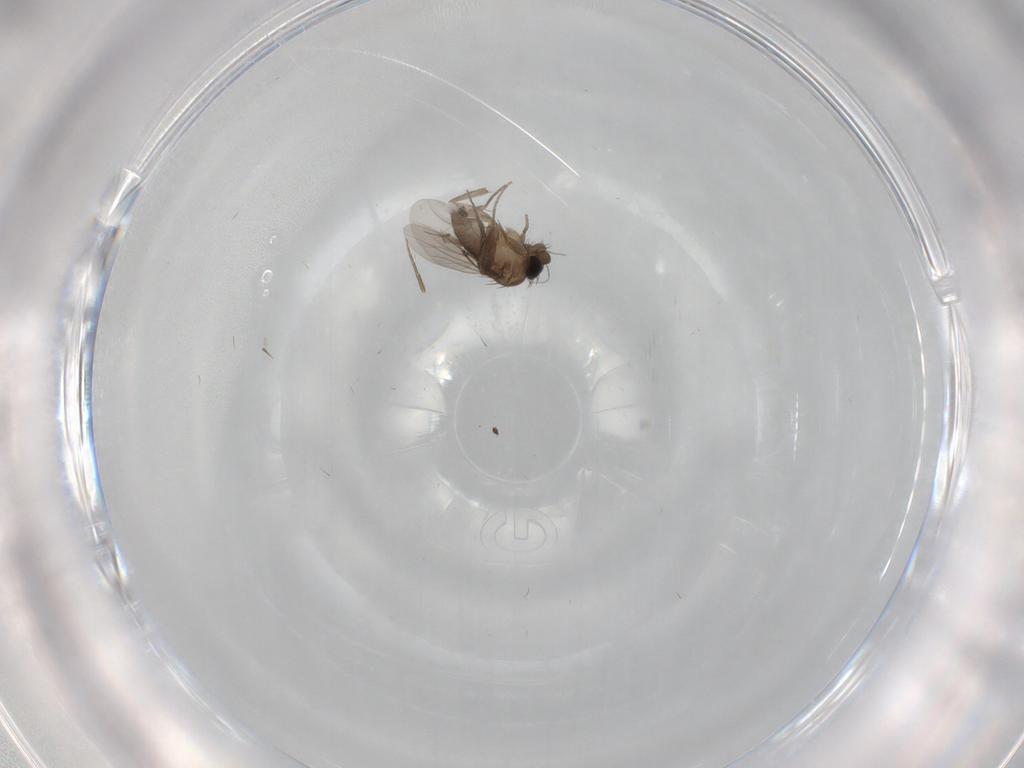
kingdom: Animalia
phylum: Arthropoda
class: Insecta
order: Diptera
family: Phoridae
